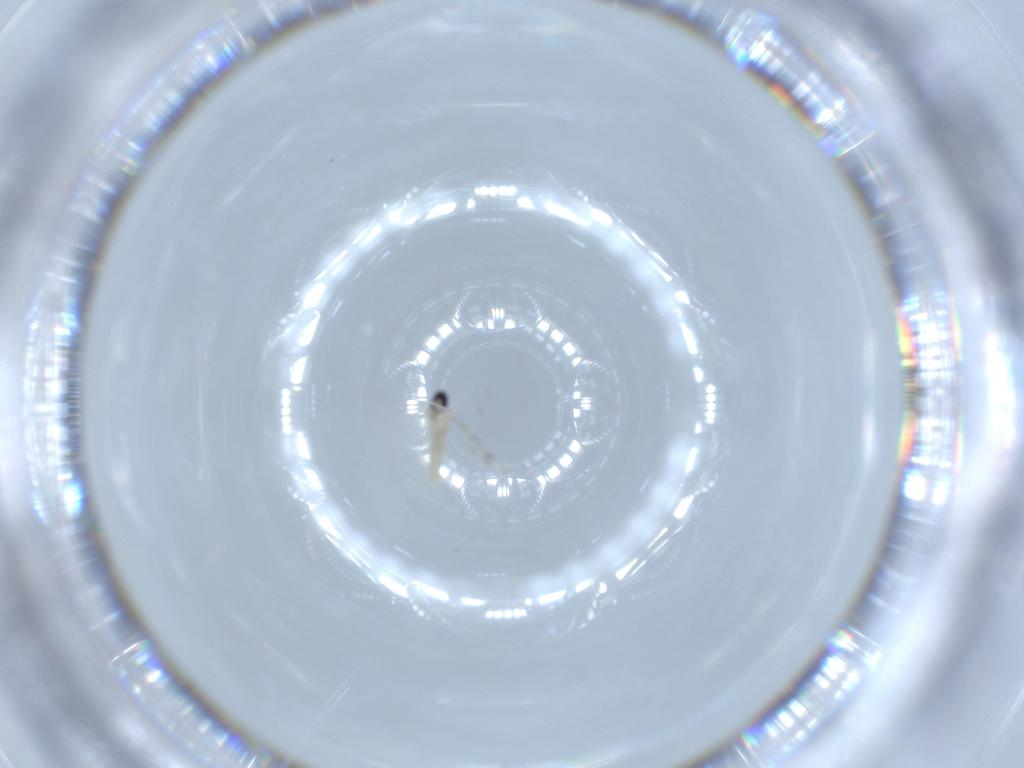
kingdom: Animalia
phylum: Arthropoda
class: Insecta
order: Diptera
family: Cecidomyiidae
